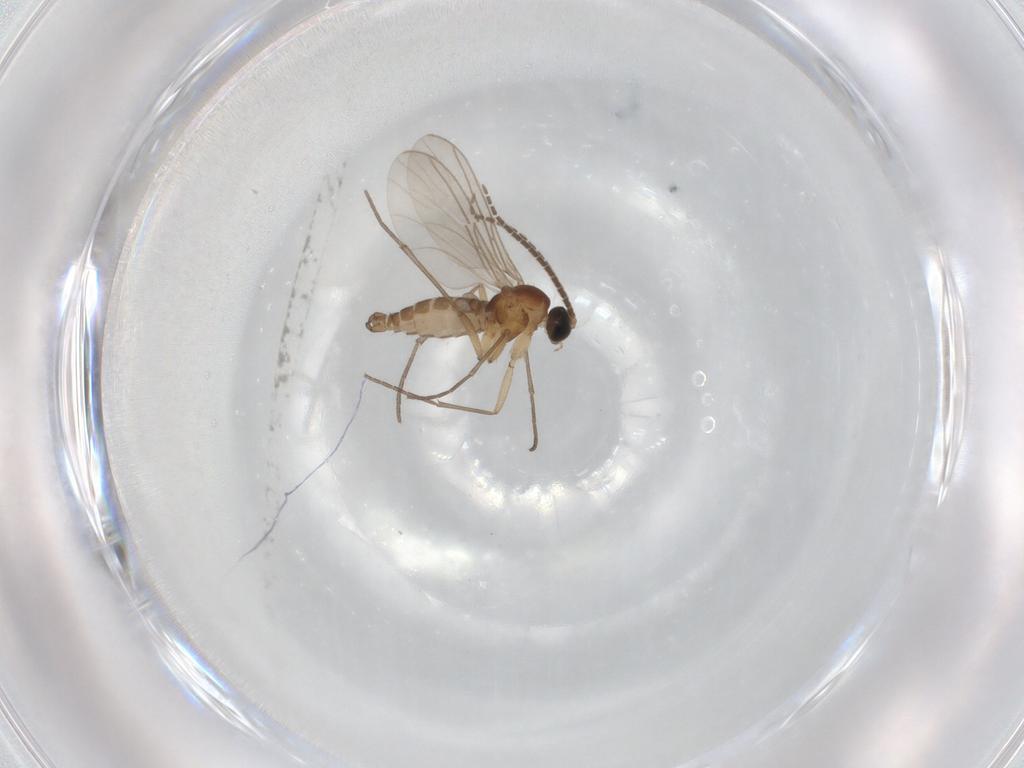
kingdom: Animalia
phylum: Arthropoda
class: Insecta
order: Diptera
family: Sciaridae
